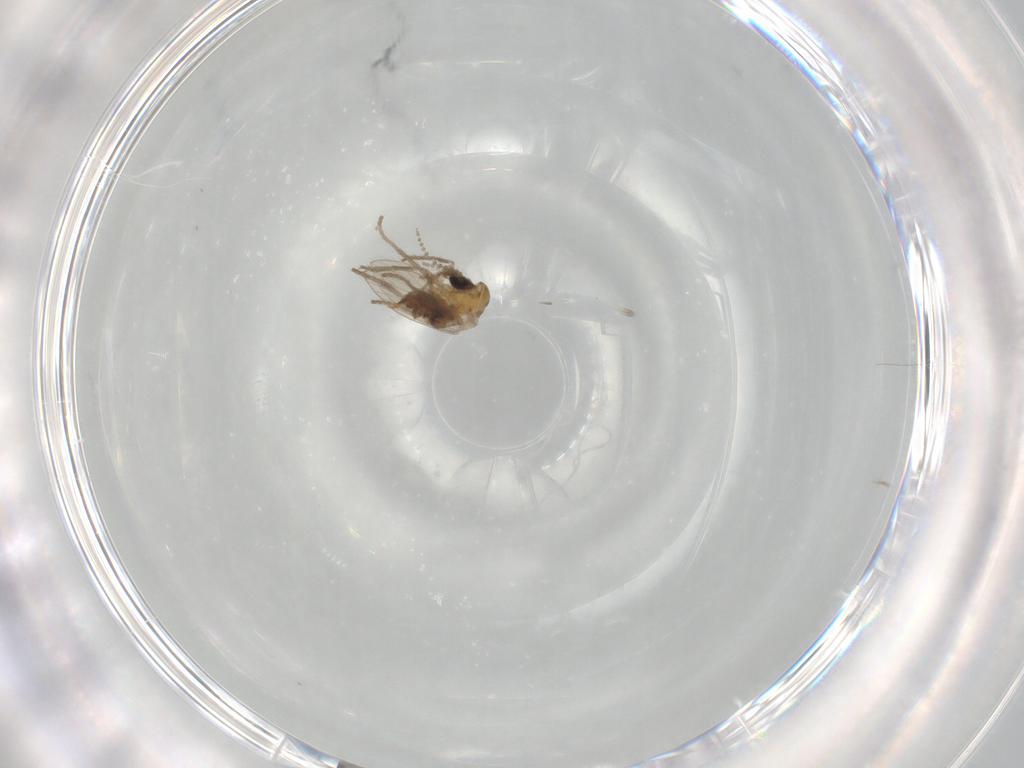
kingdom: Animalia
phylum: Arthropoda
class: Insecta
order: Diptera
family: Psychodidae
